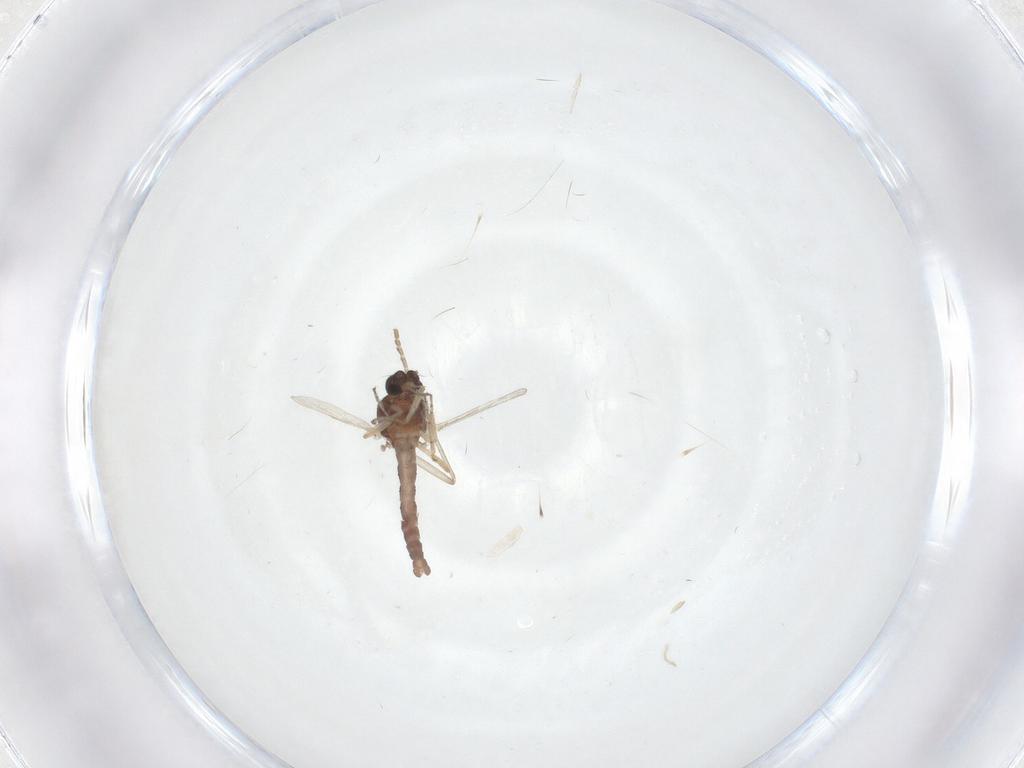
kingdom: Animalia
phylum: Arthropoda
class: Insecta
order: Diptera
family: Ceratopogonidae
